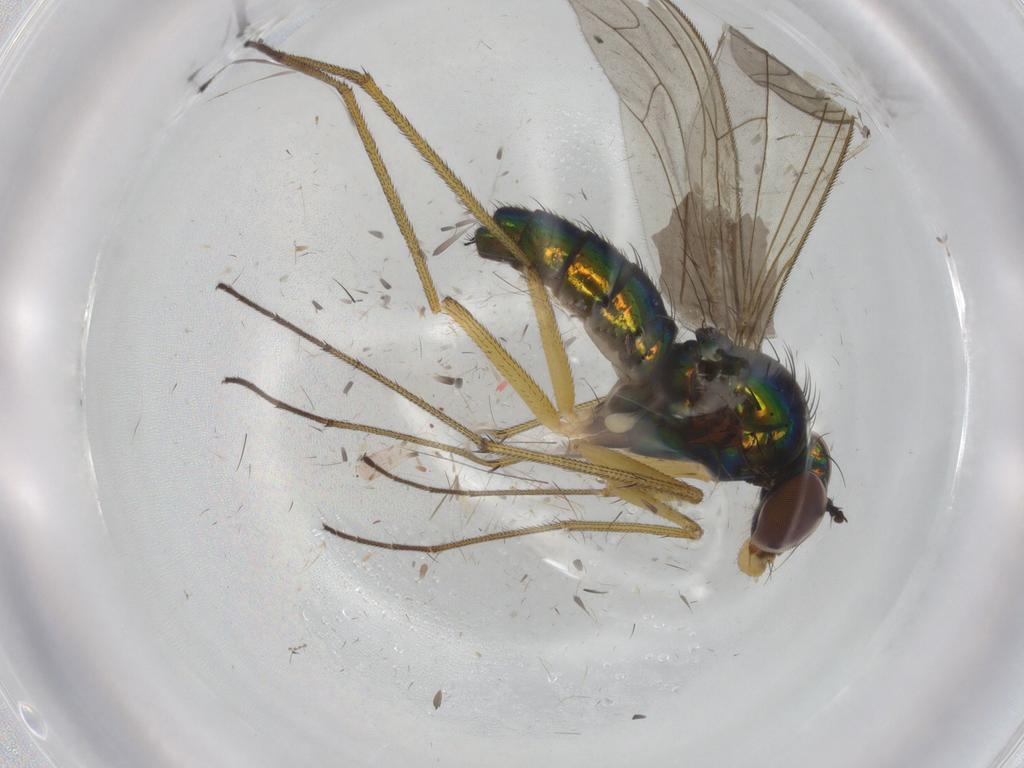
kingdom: Animalia
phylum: Arthropoda
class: Insecta
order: Diptera
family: Dolichopodidae
